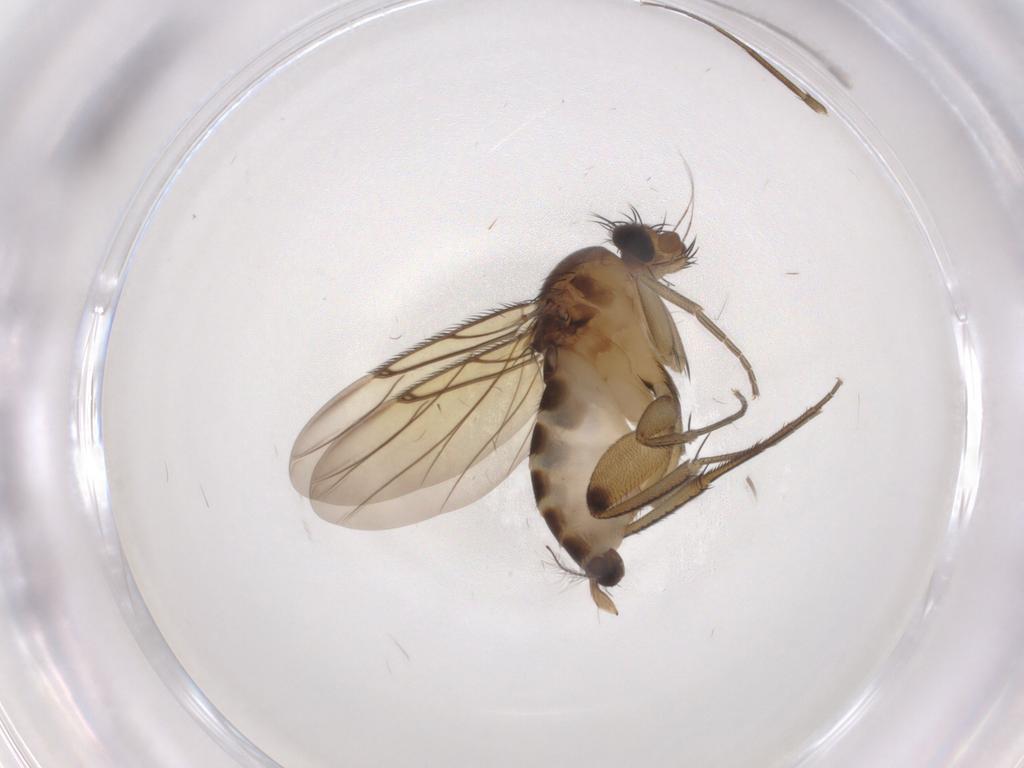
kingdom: Animalia
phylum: Arthropoda
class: Insecta
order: Diptera
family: Phoridae
